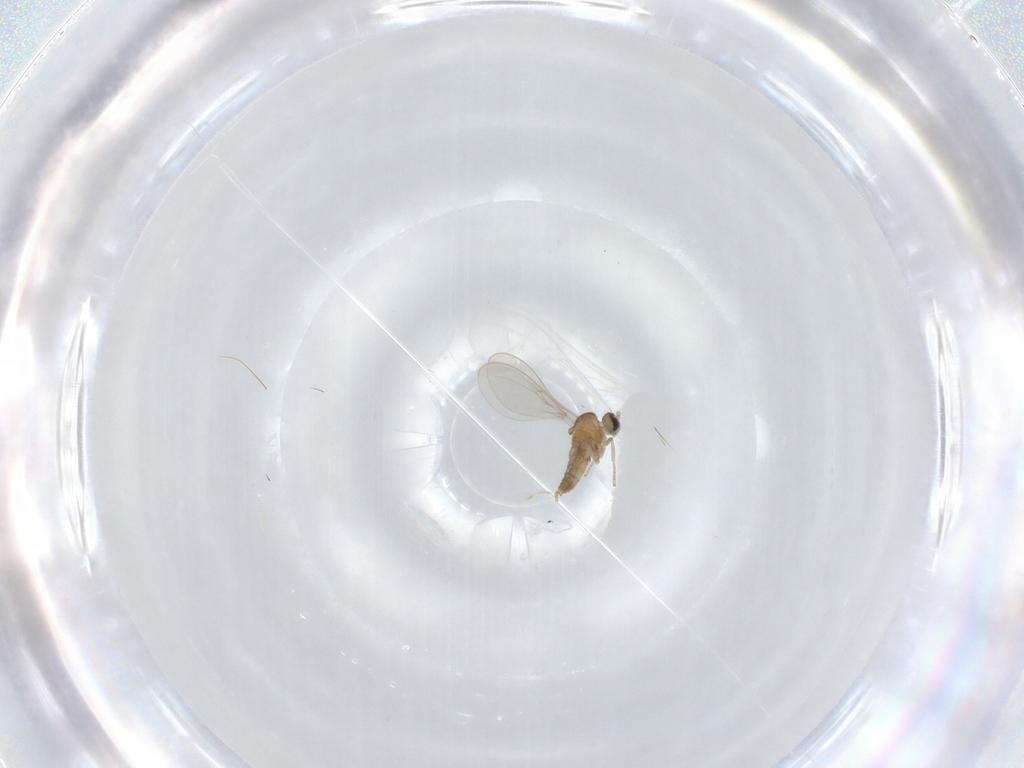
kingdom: Animalia
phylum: Arthropoda
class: Insecta
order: Diptera
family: Cecidomyiidae
